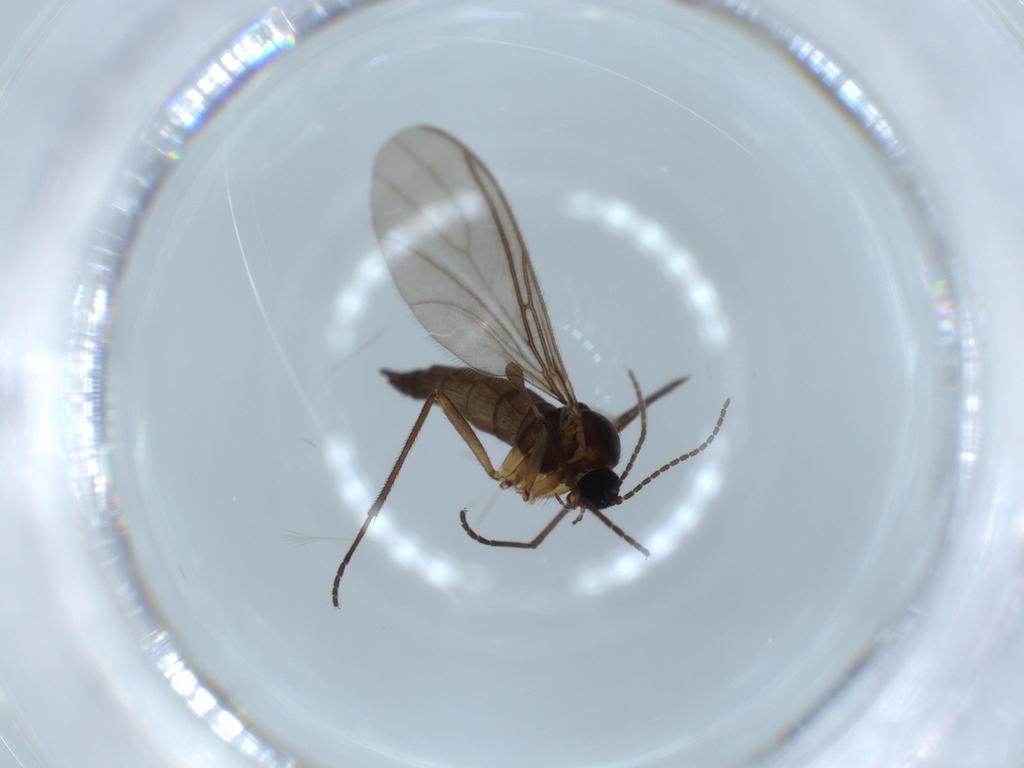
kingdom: Animalia
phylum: Arthropoda
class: Insecta
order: Diptera
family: Sciaridae
